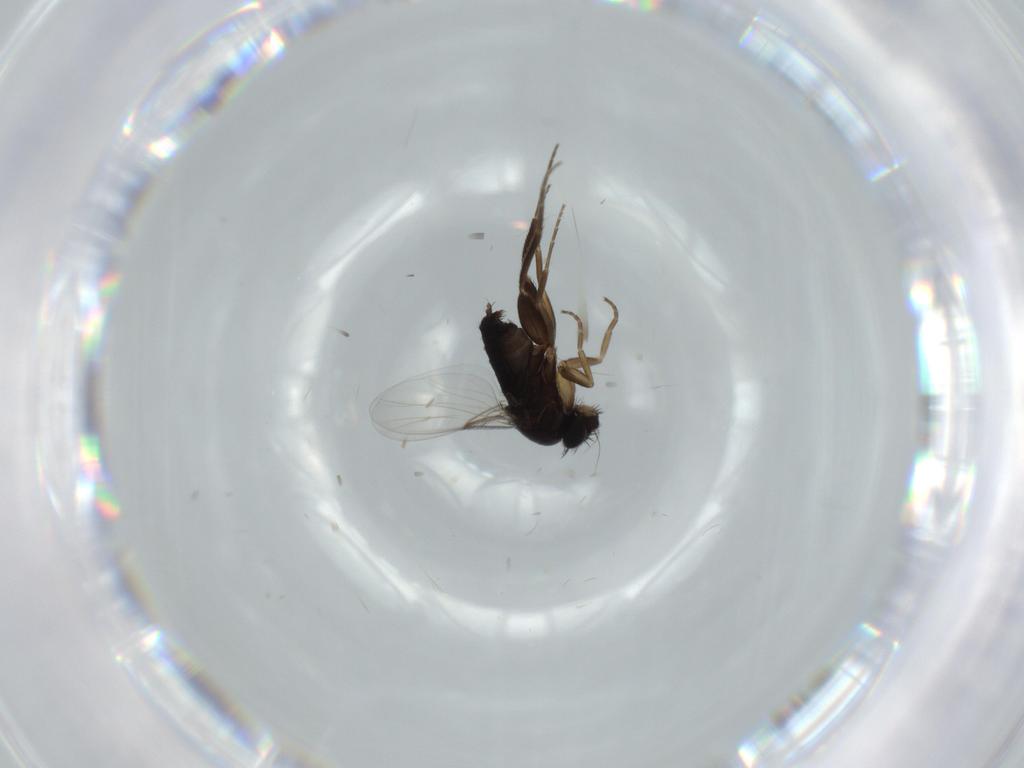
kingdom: Animalia
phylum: Arthropoda
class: Insecta
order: Diptera
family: Phoridae
